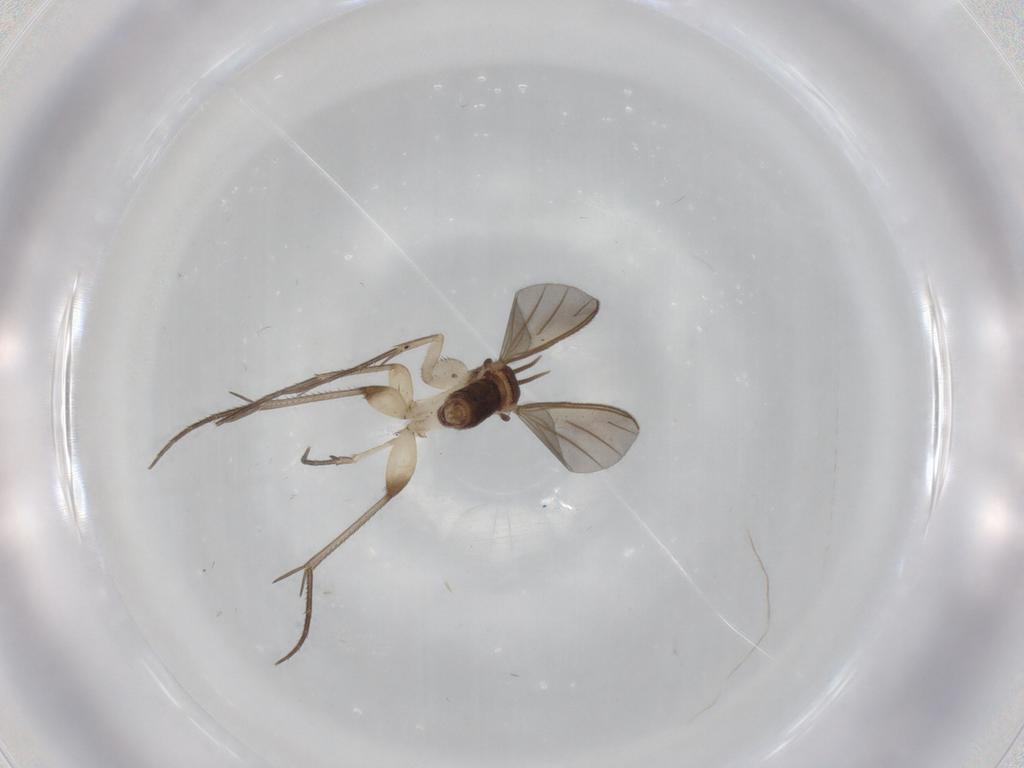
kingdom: Animalia
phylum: Arthropoda
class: Insecta
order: Diptera
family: Mycetophilidae
